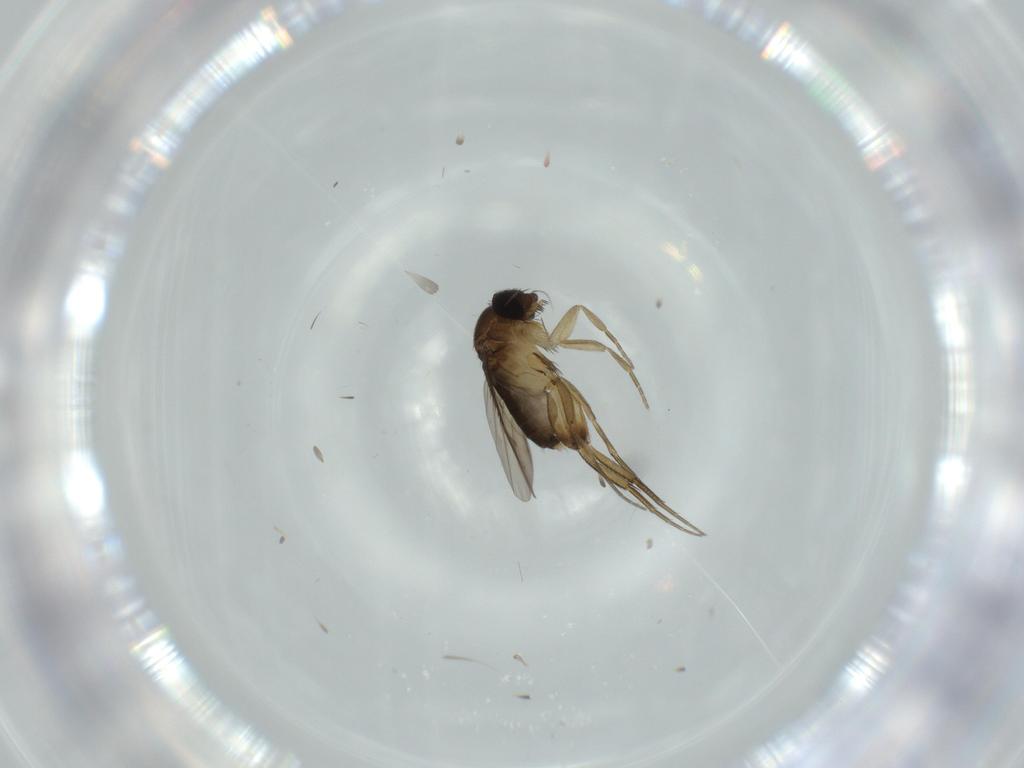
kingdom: Animalia
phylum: Arthropoda
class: Insecta
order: Diptera
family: Phoridae
